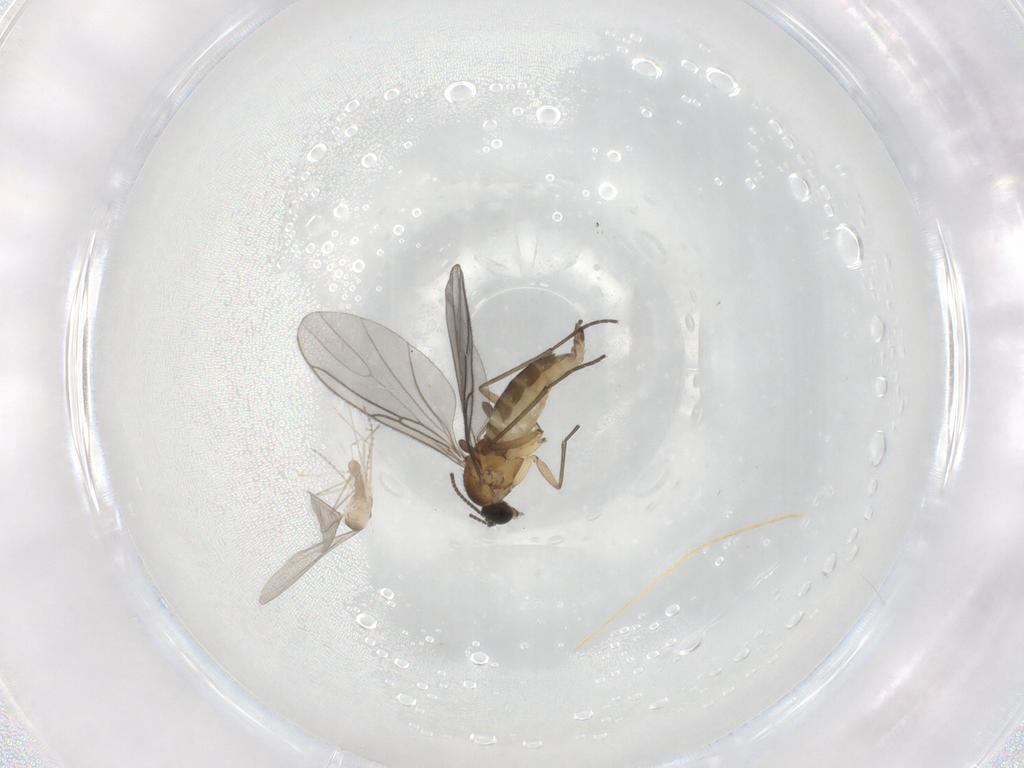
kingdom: Animalia
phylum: Arthropoda
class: Insecta
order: Diptera
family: Sciaridae
